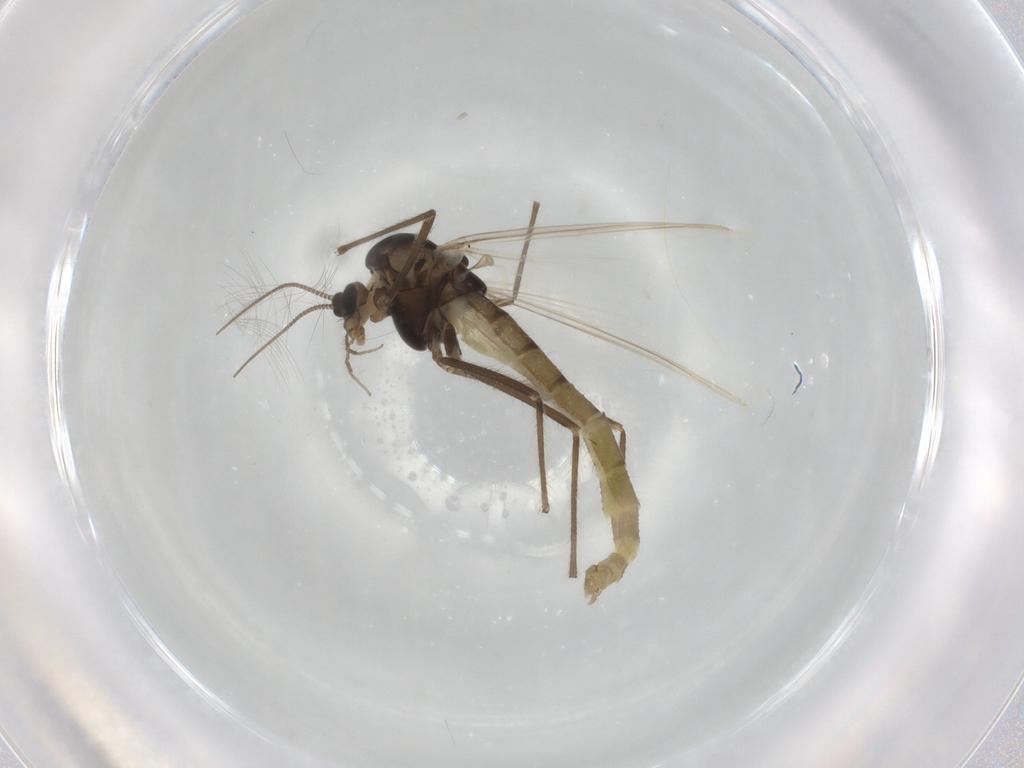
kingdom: Animalia
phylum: Arthropoda
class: Insecta
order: Diptera
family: Chironomidae
